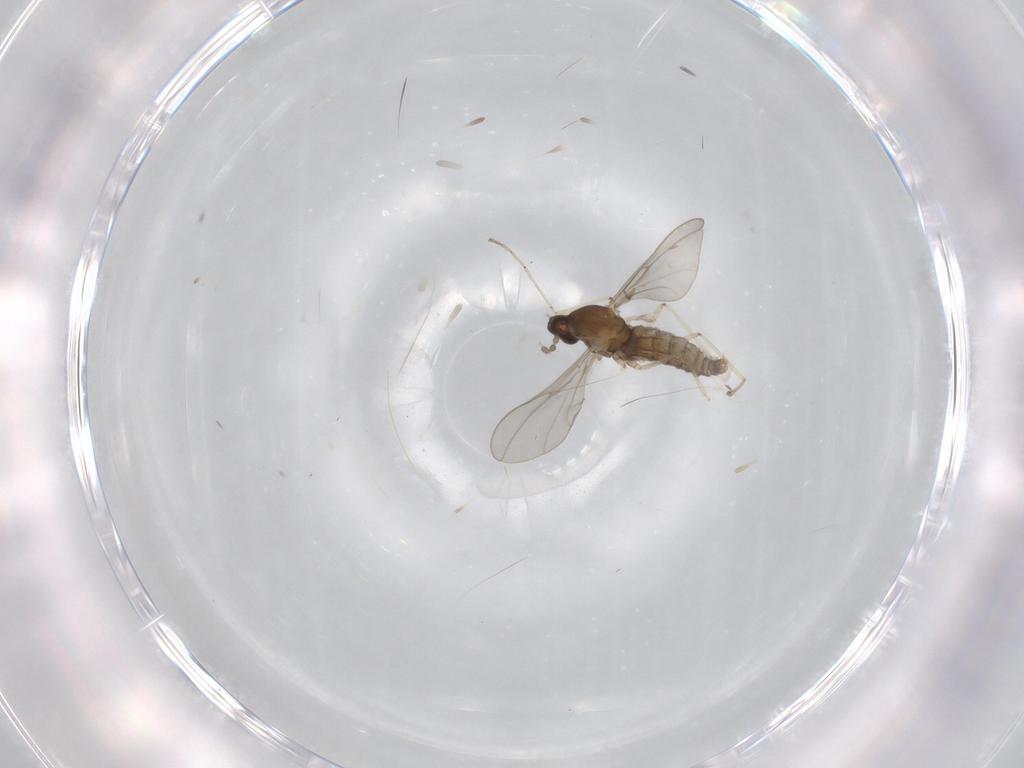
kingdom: Animalia
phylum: Arthropoda
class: Insecta
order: Diptera
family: Cecidomyiidae
